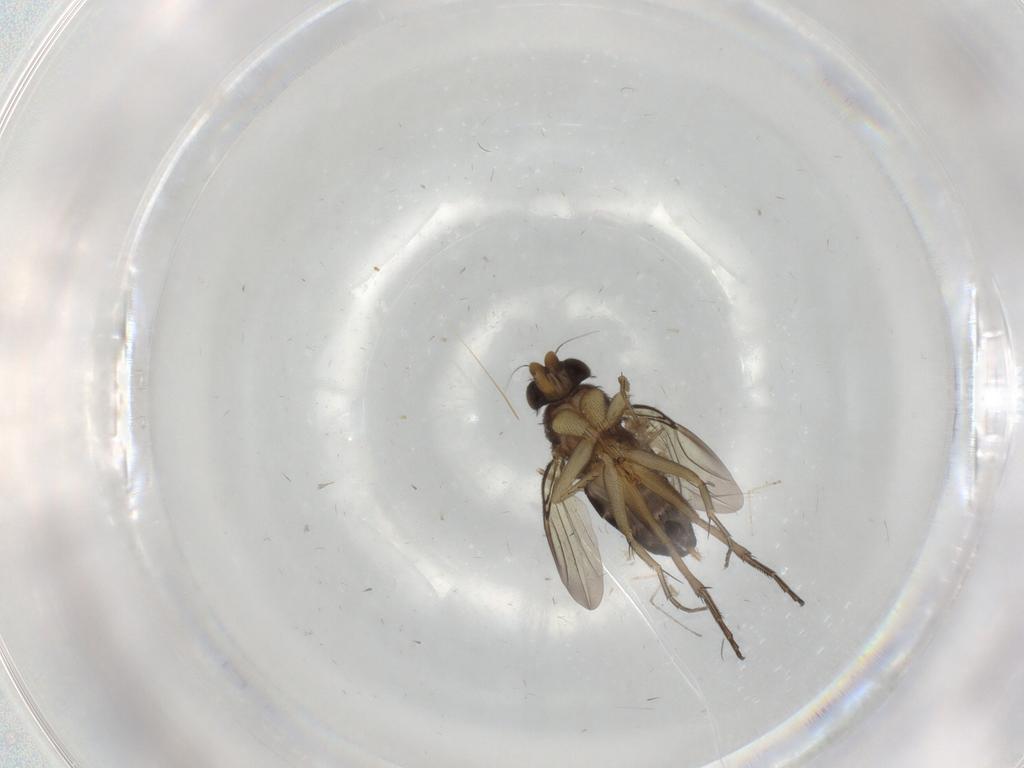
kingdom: Animalia
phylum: Arthropoda
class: Insecta
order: Diptera
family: Phoridae
